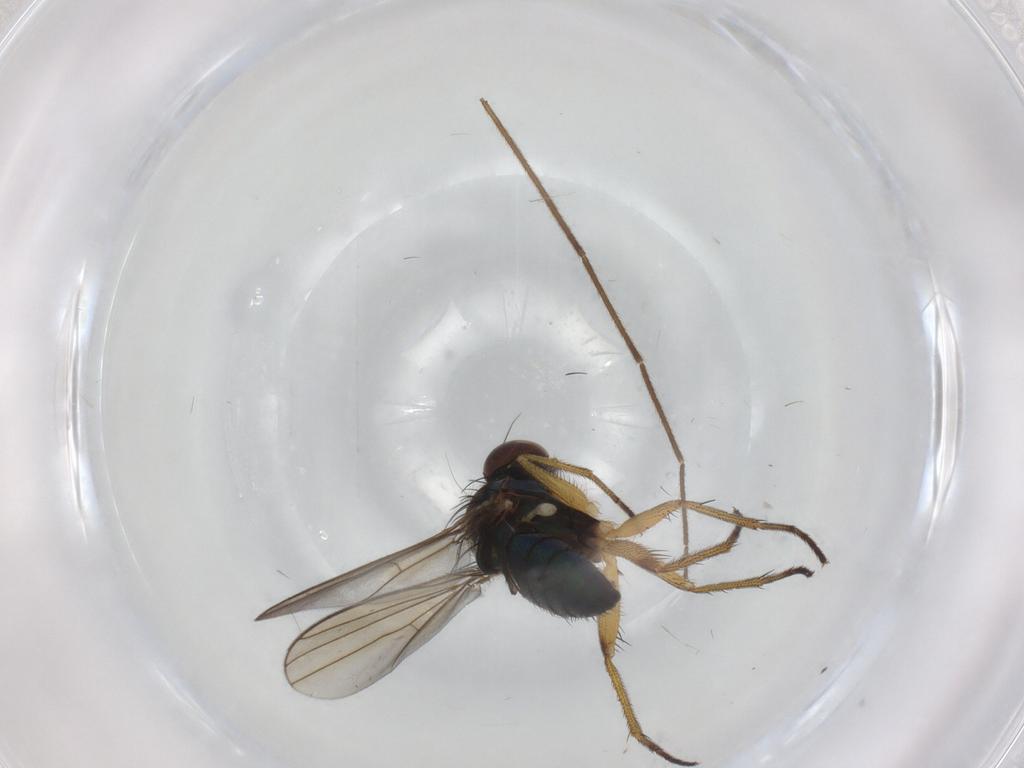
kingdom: Animalia
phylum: Arthropoda
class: Insecta
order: Diptera
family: Dolichopodidae
